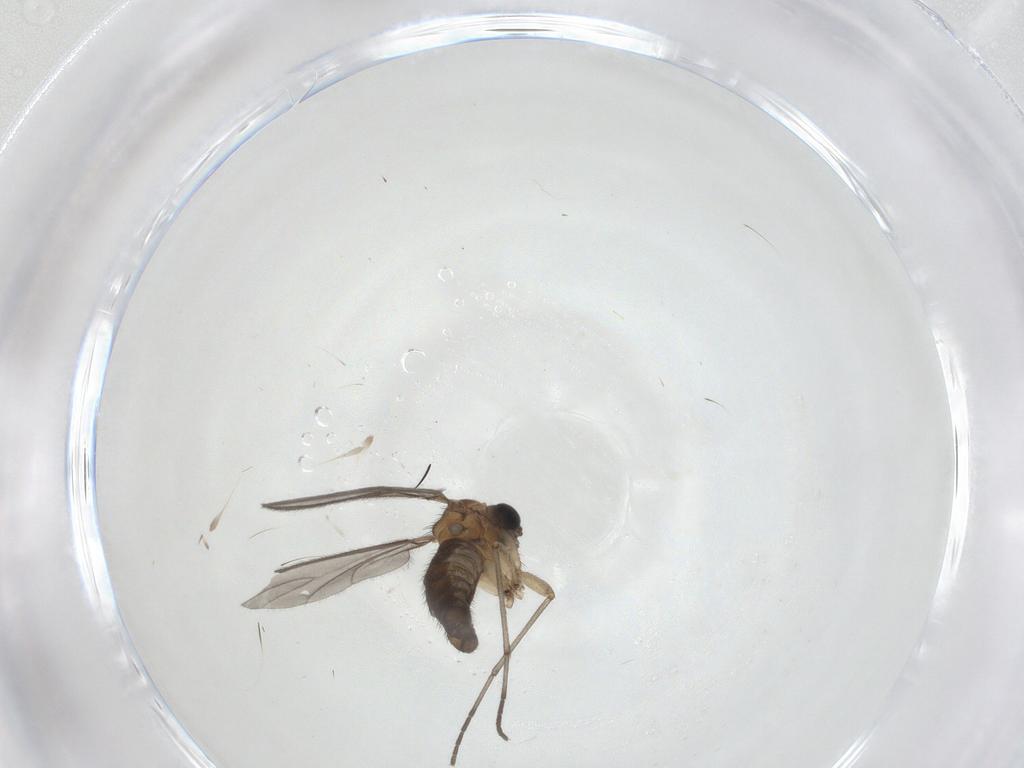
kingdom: Animalia
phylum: Arthropoda
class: Insecta
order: Diptera
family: Sciaridae
